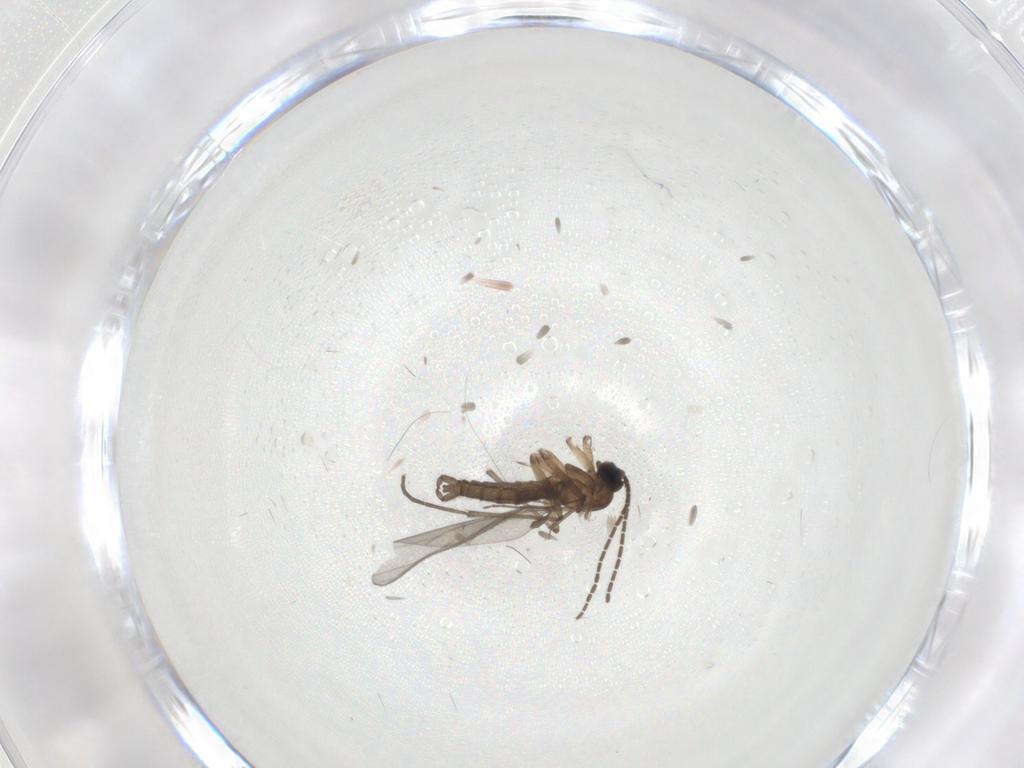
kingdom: Animalia
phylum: Arthropoda
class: Insecta
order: Diptera
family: Sciaridae
